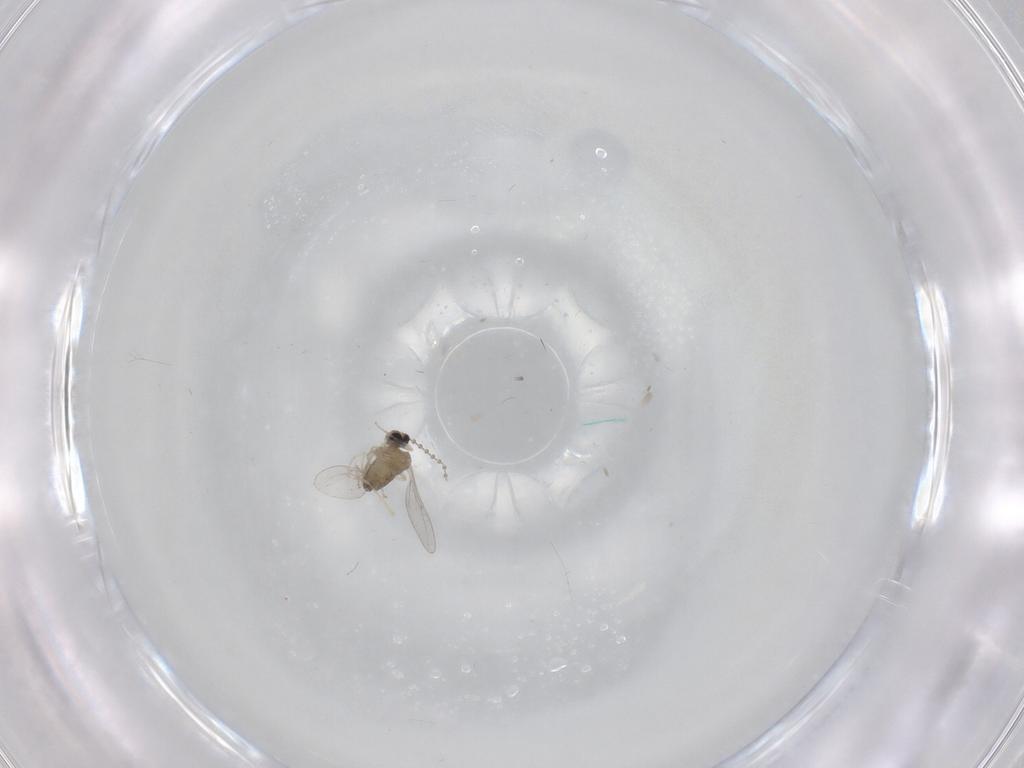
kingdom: Animalia
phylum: Arthropoda
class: Insecta
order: Diptera
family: Cecidomyiidae
